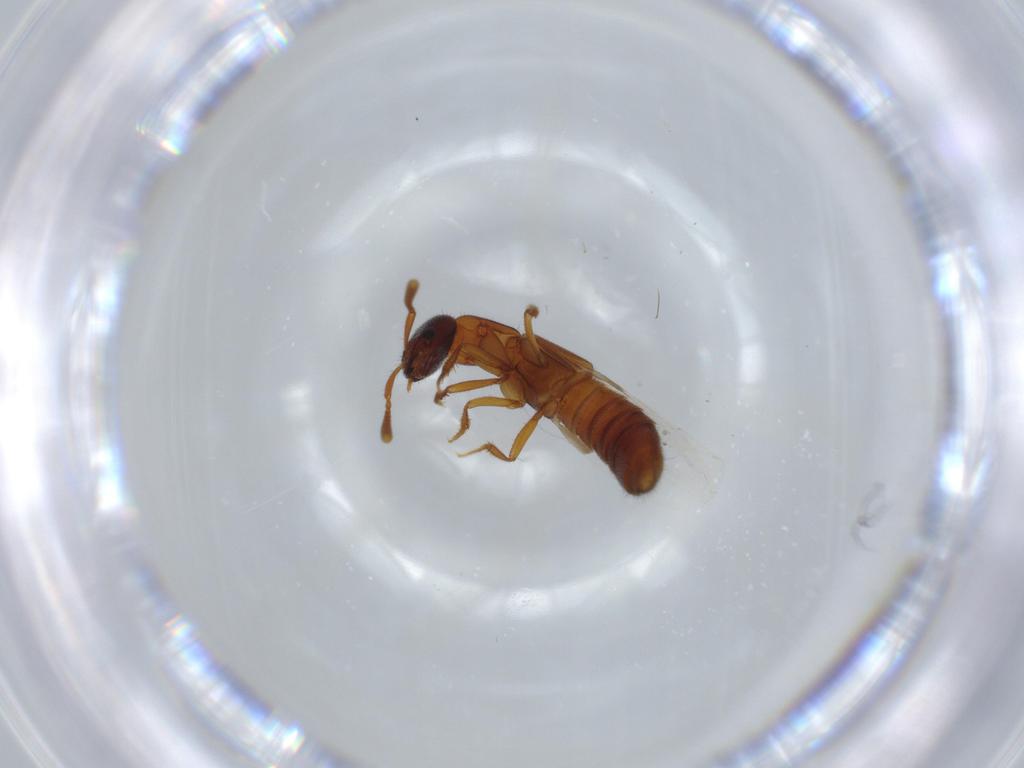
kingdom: Animalia
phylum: Arthropoda
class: Insecta
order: Coleoptera
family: Staphylinidae
